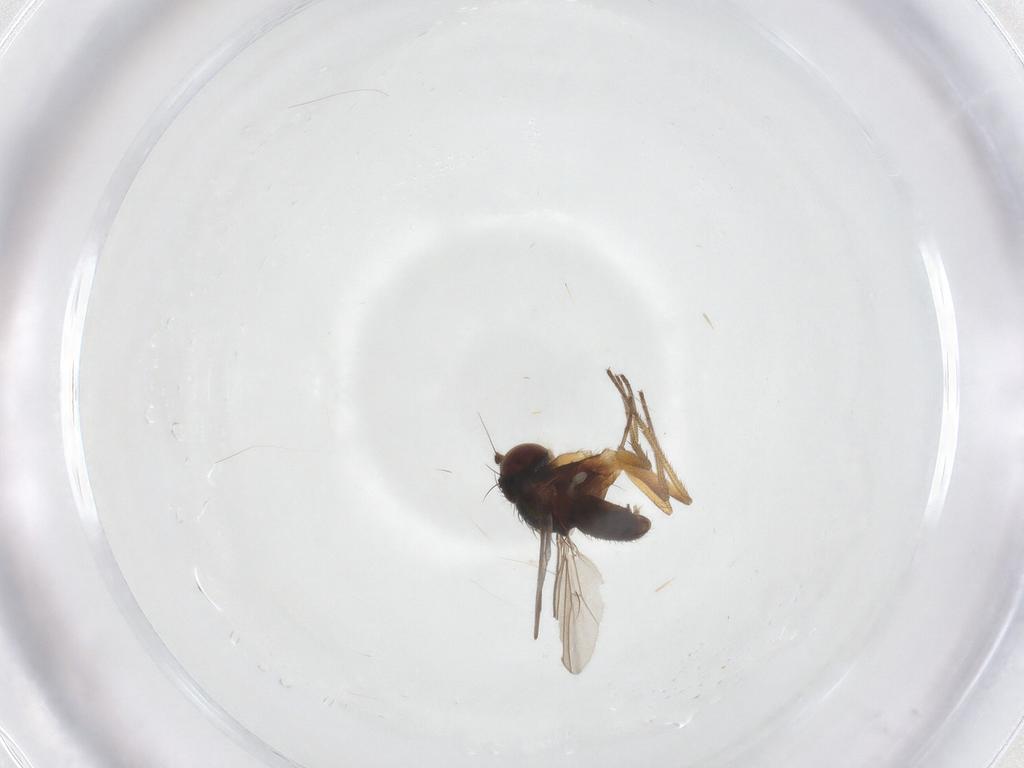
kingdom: Animalia
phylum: Arthropoda
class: Insecta
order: Diptera
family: Dolichopodidae
